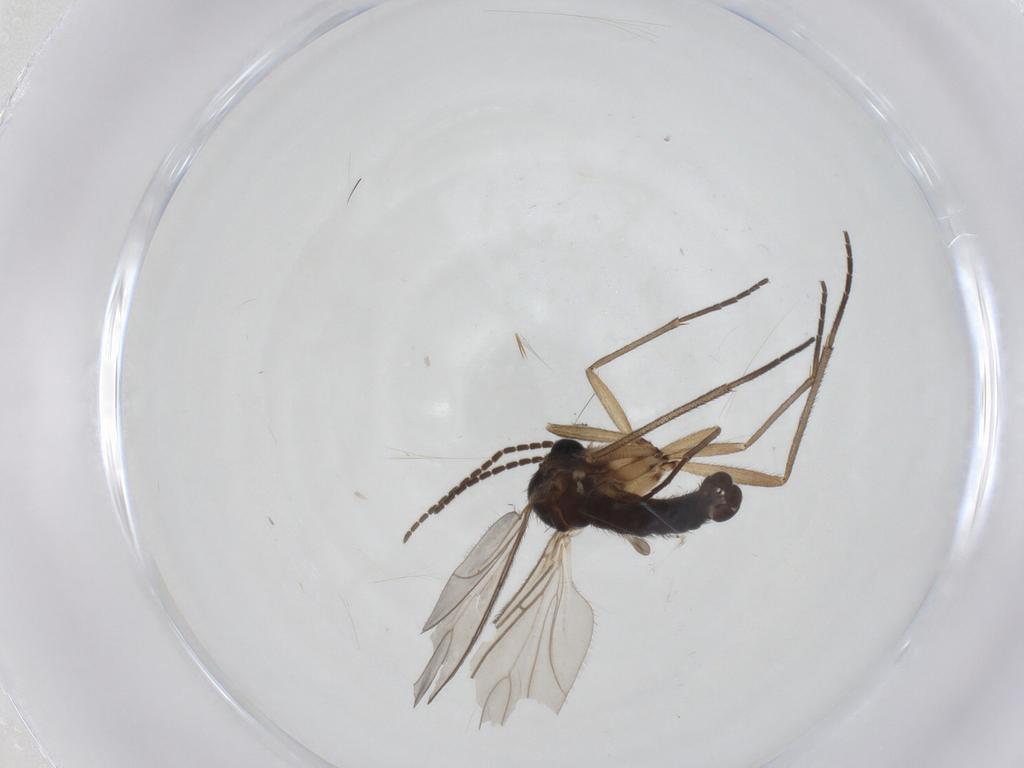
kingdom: Animalia
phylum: Arthropoda
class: Insecta
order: Diptera
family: Sciaridae
